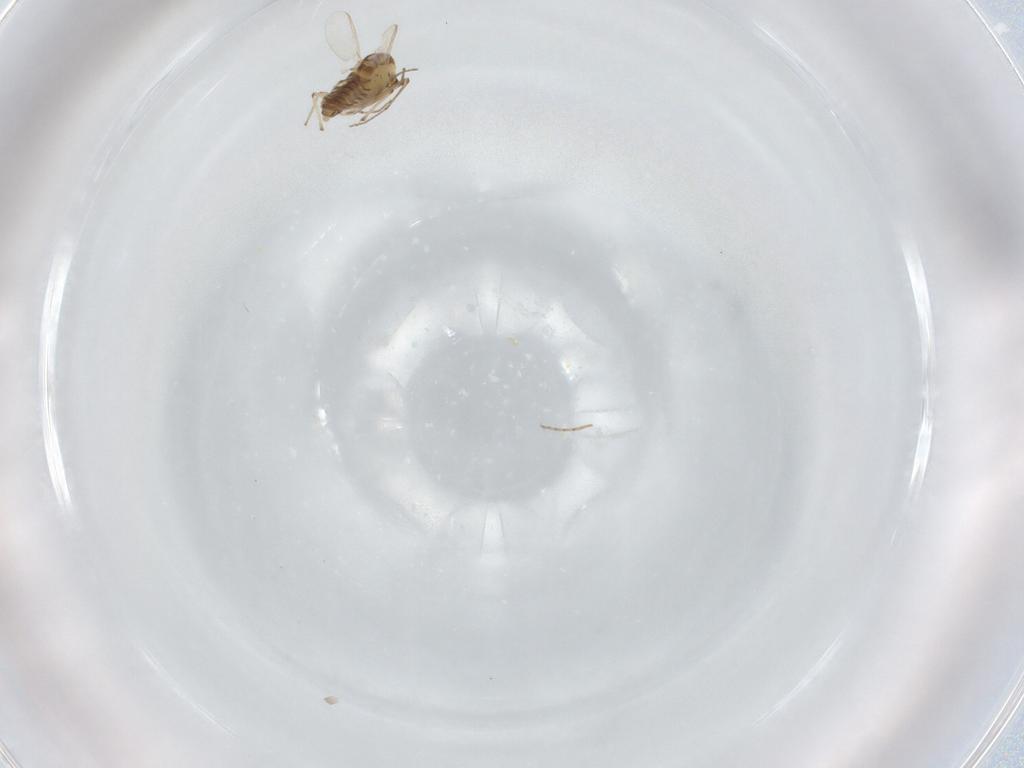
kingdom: Animalia
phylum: Arthropoda
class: Insecta
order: Diptera
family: Chironomidae
